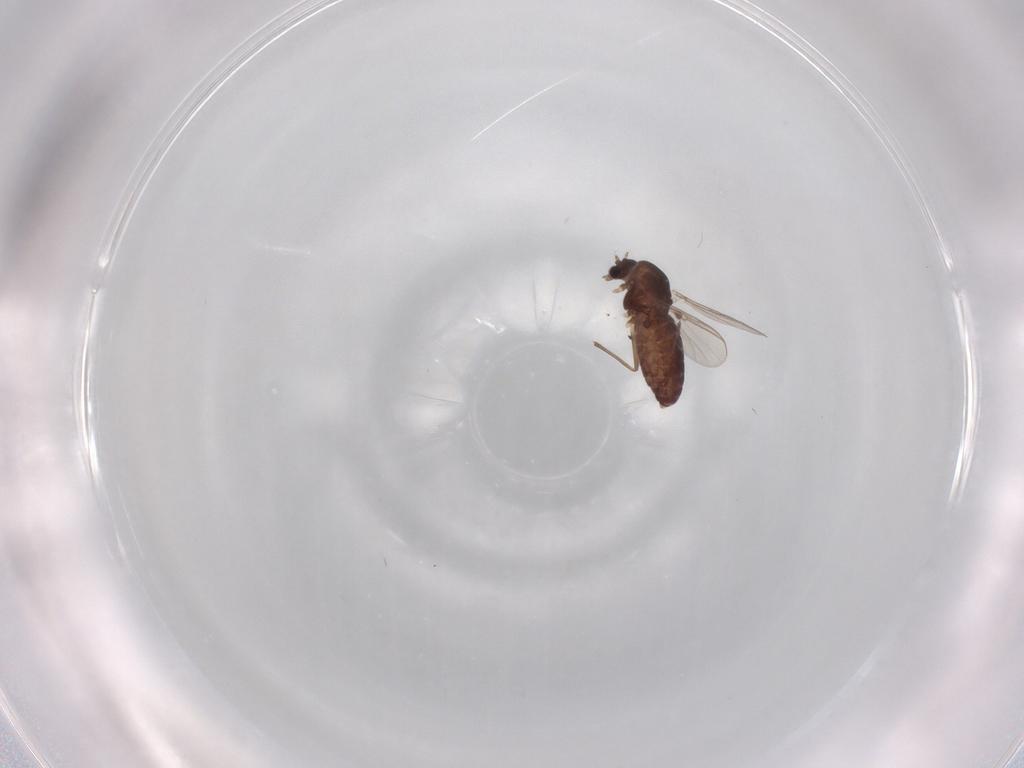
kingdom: Animalia
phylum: Arthropoda
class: Insecta
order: Diptera
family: Chironomidae
